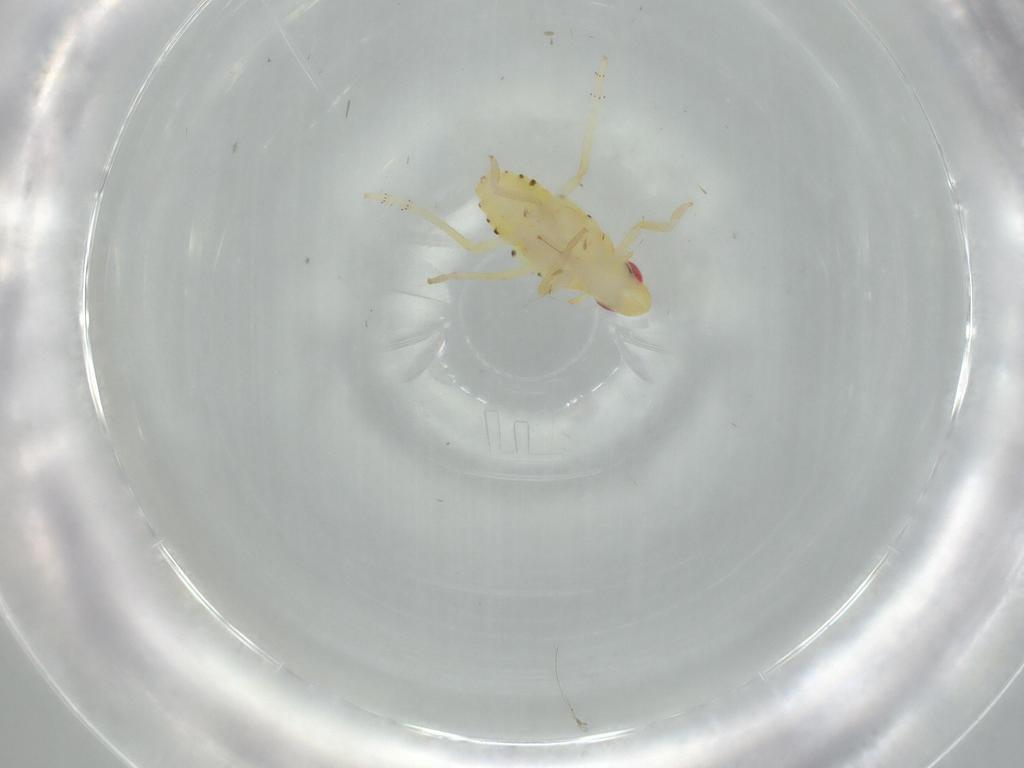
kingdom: Animalia
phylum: Arthropoda
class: Insecta
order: Hemiptera
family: Tropiduchidae
